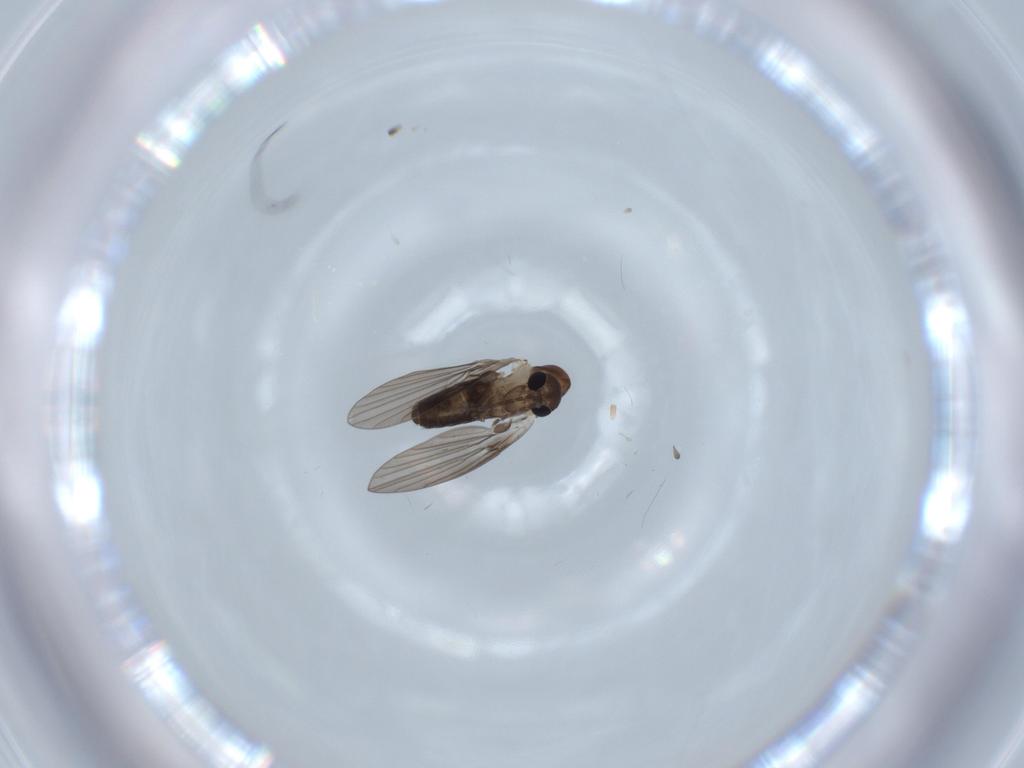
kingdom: Animalia
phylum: Arthropoda
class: Insecta
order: Diptera
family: Psychodidae
